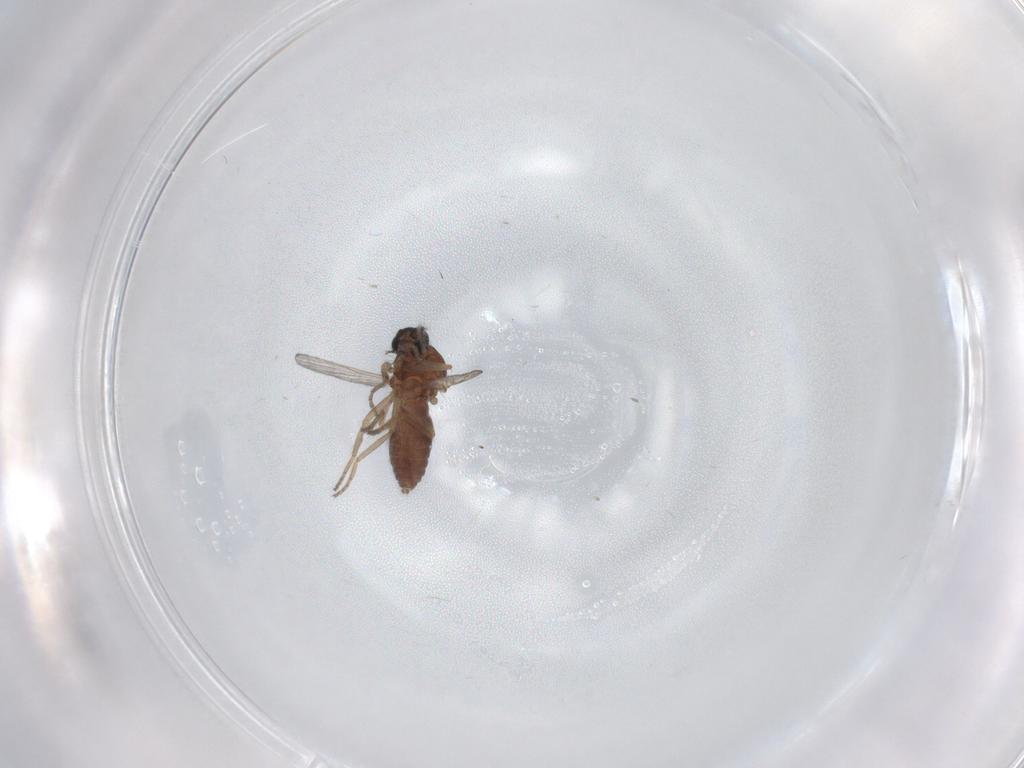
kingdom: Animalia
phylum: Arthropoda
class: Insecta
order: Diptera
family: Ceratopogonidae
